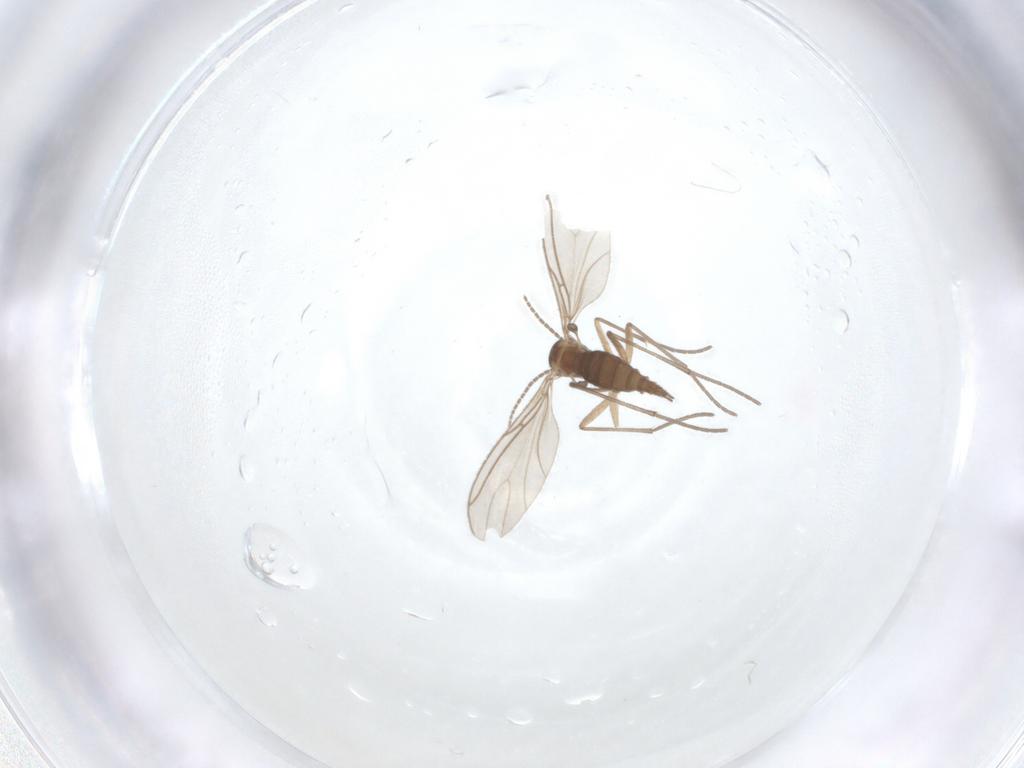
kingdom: Animalia
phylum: Arthropoda
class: Insecta
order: Diptera
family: Sciaridae
